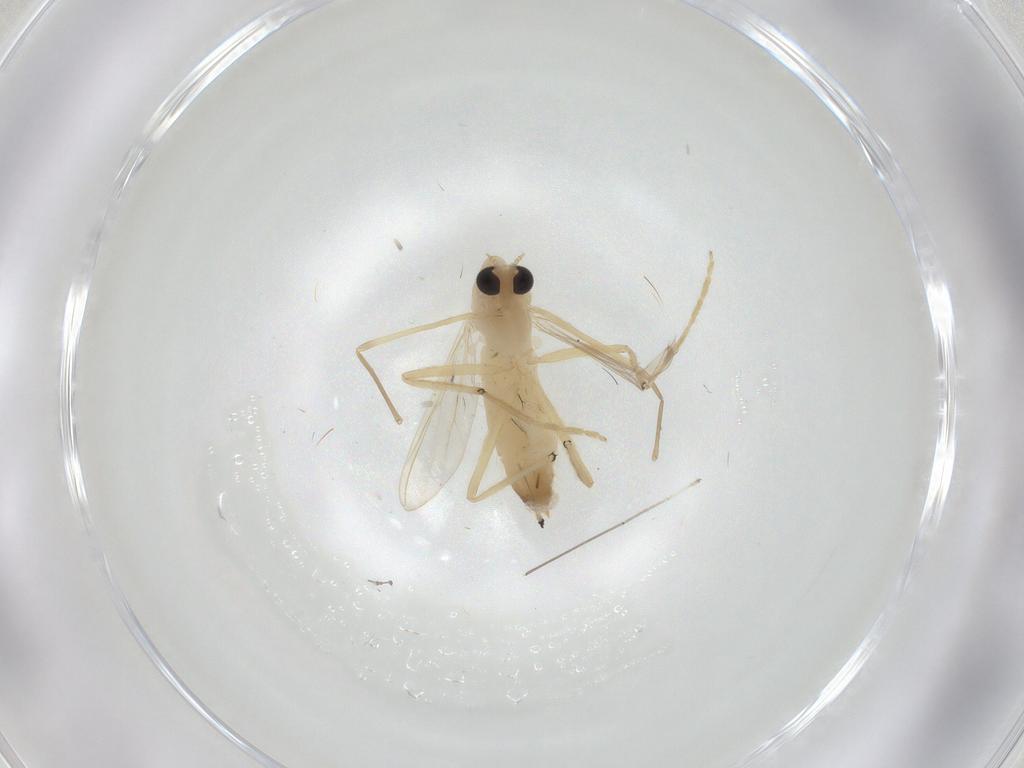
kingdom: Animalia
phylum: Arthropoda
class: Insecta
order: Diptera
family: Chironomidae
